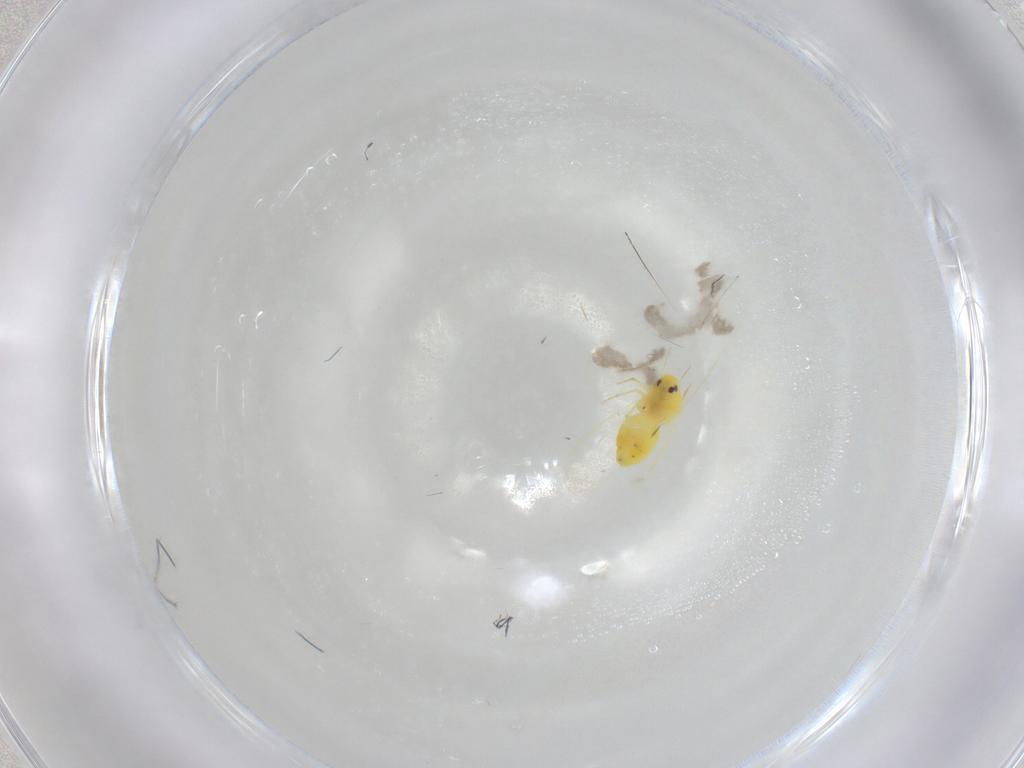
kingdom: Animalia
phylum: Arthropoda
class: Insecta
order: Hemiptera
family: Aleyrodidae
